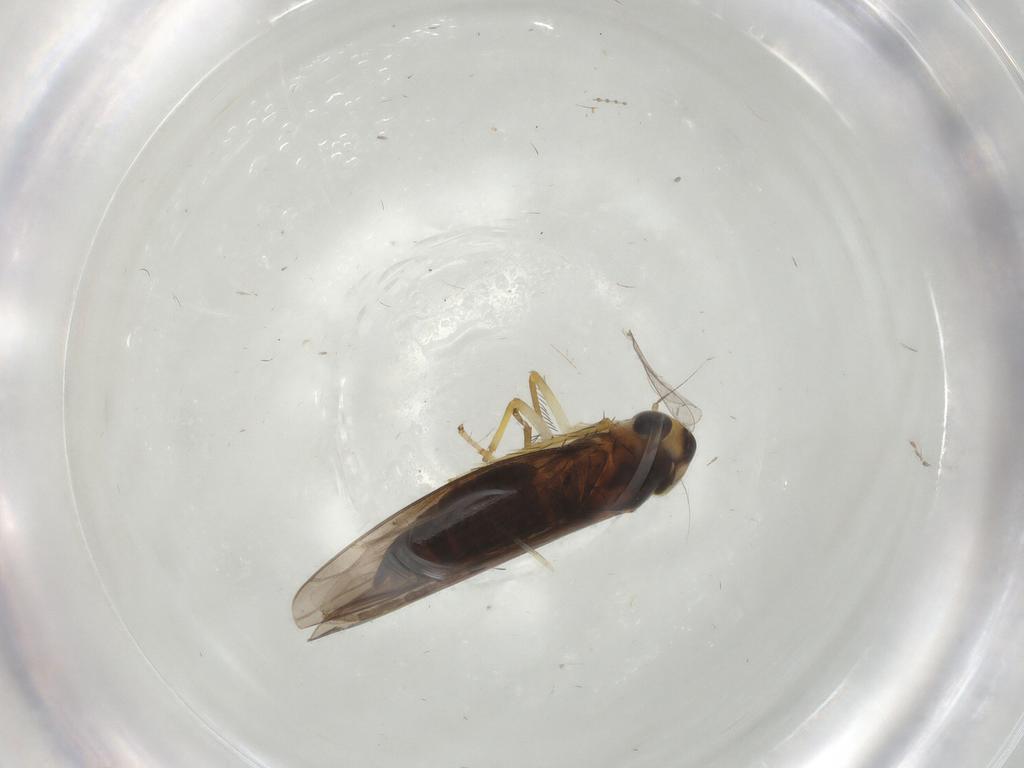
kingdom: Animalia
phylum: Arthropoda
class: Insecta
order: Hemiptera
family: Cicadellidae
